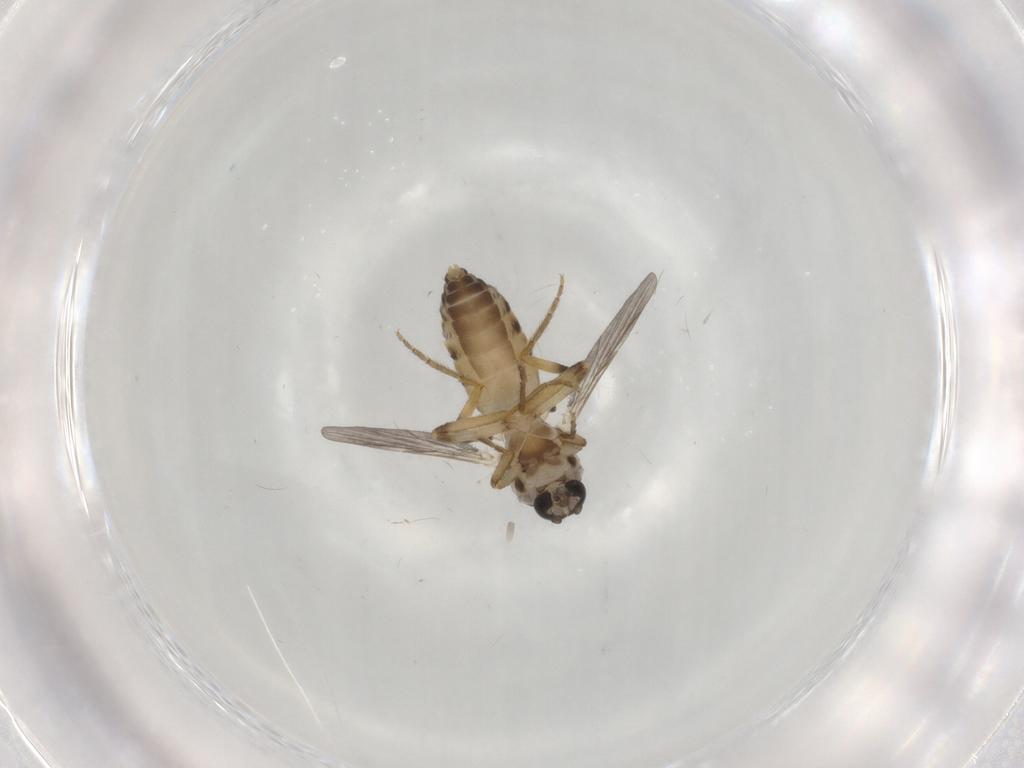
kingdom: Animalia
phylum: Arthropoda
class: Insecta
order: Diptera
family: Ceratopogonidae
